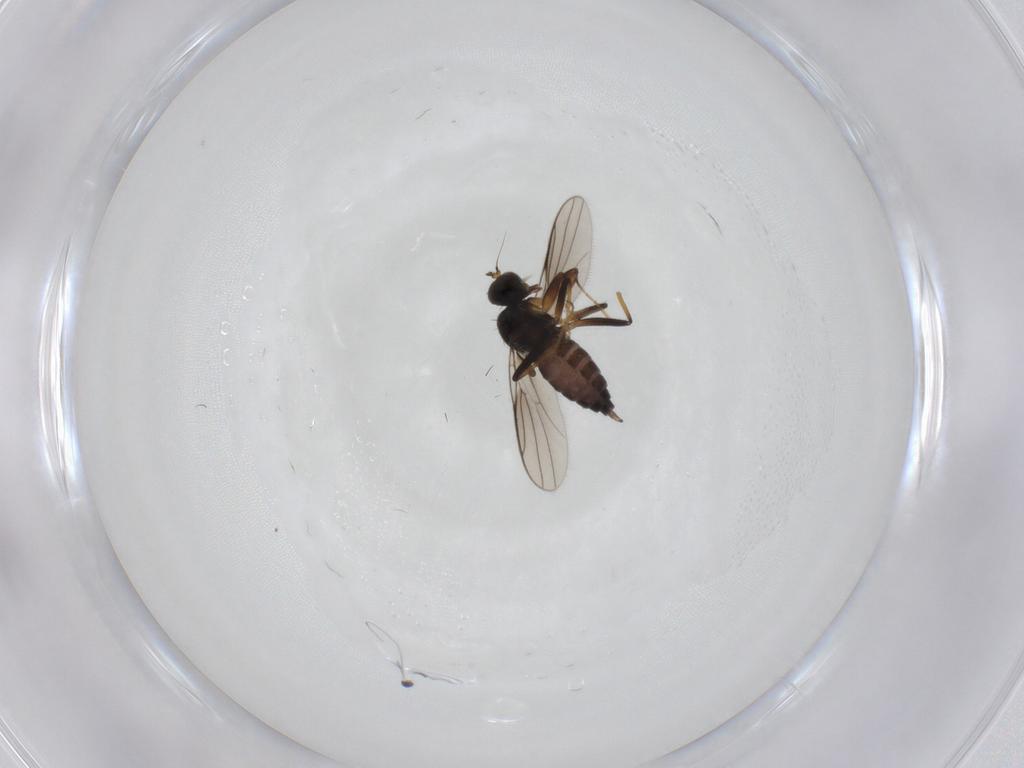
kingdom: Animalia
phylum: Arthropoda
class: Insecta
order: Diptera
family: Hybotidae
